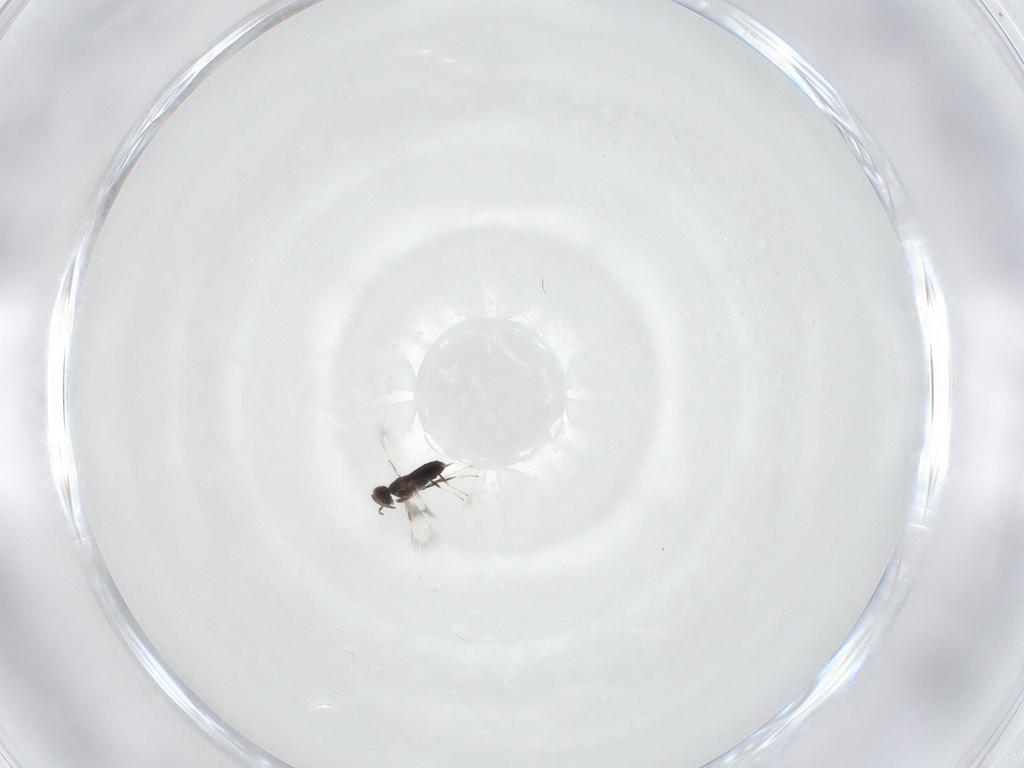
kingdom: Animalia
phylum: Arthropoda
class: Insecta
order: Hymenoptera
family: Signiphoridae
